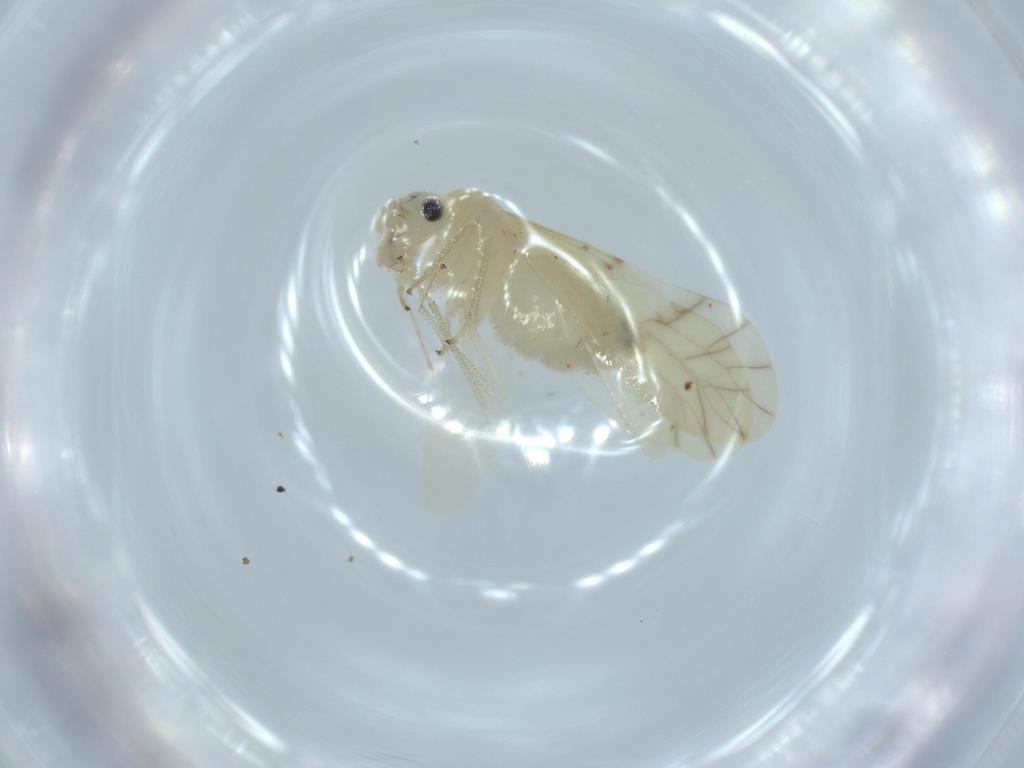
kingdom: Animalia
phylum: Arthropoda
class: Insecta
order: Psocodea
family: Caeciliusidae
